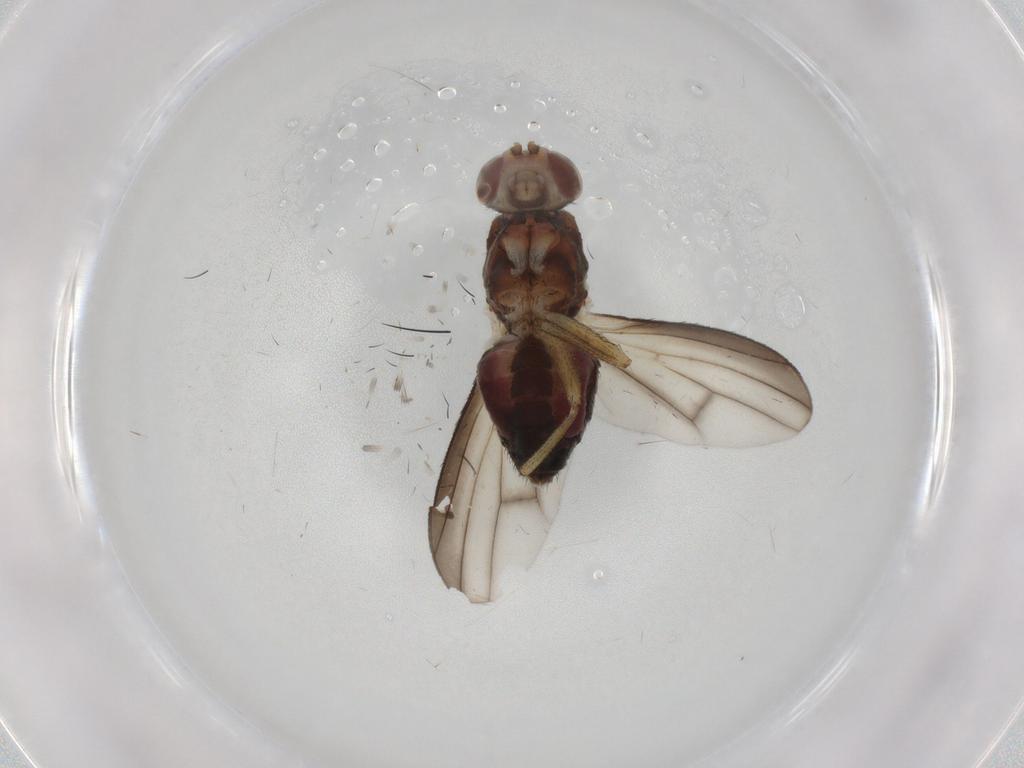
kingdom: Animalia
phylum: Arthropoda
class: Insecta
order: Diptera
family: Heleomyzidae
